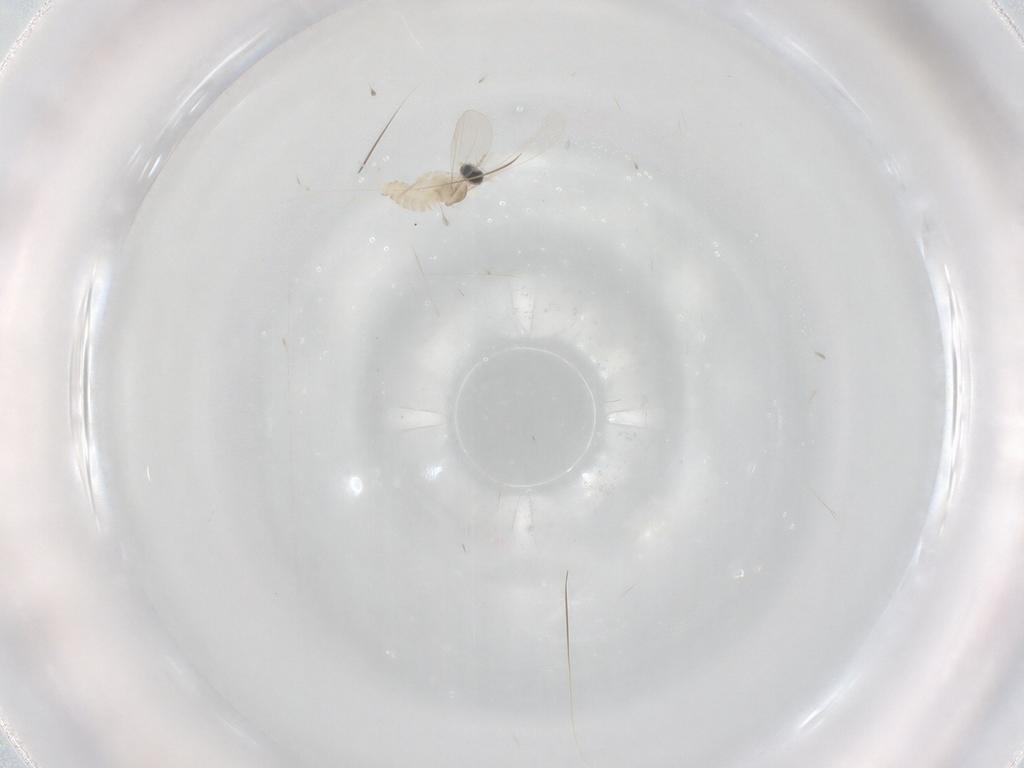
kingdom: Animalia
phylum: Arthropoda
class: Insecta
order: Diptera
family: Cecidomyiidae
